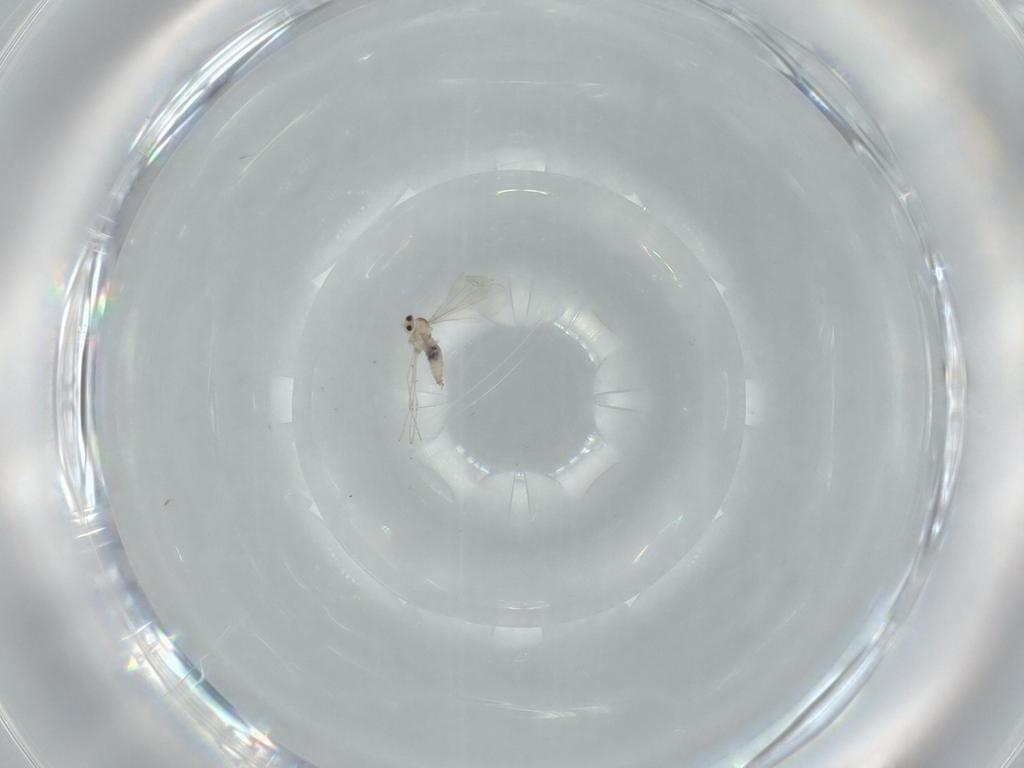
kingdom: Animalia
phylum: Arthropoda
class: Insecta
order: Diptera
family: Cecidomyiidae
